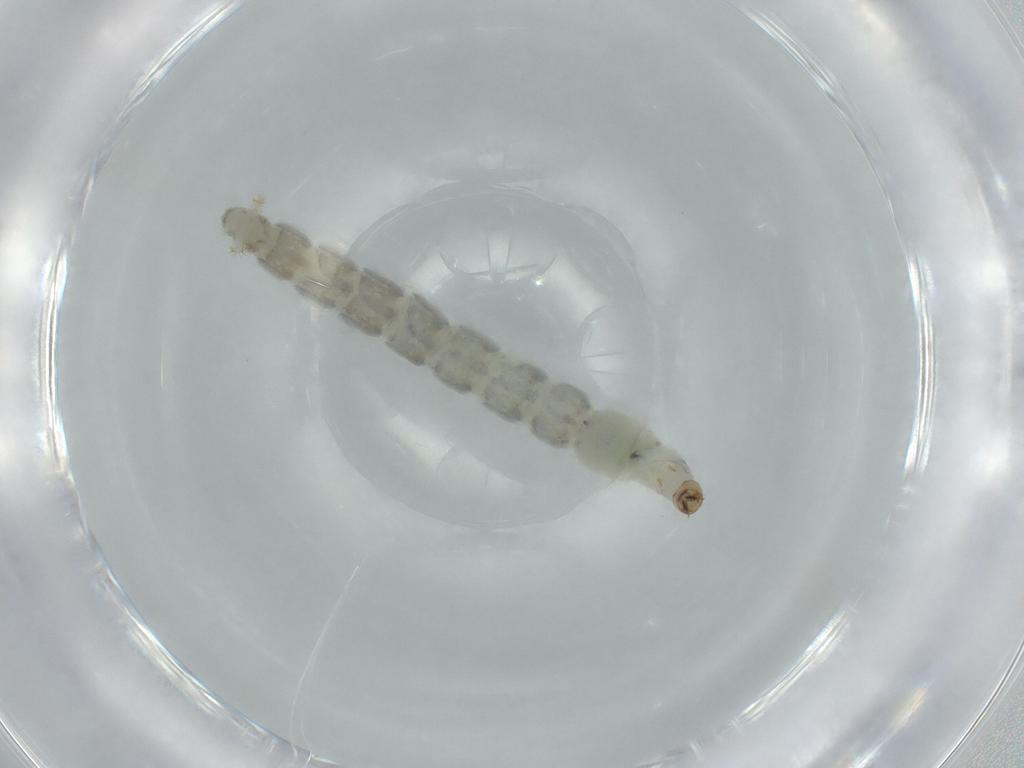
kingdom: Animalia
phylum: Arthropoda
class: Insecta
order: Diptera
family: Chironomidae
